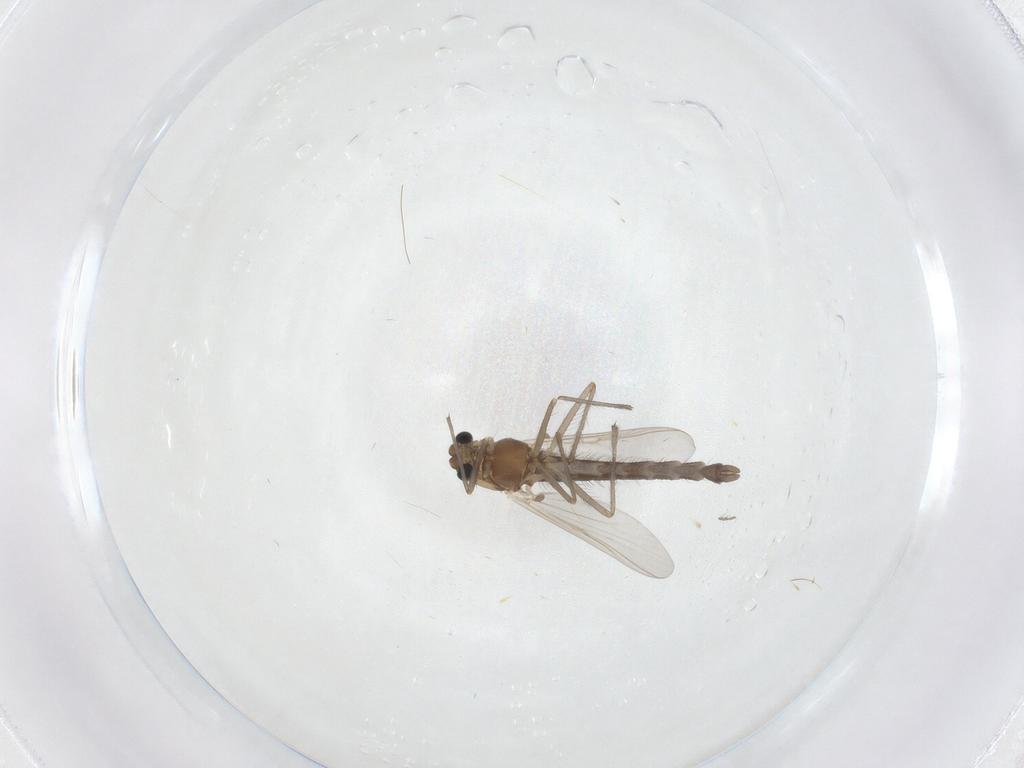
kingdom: Animalia
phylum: Arthropoda
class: Insecta
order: Diptera
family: Chironomidae
